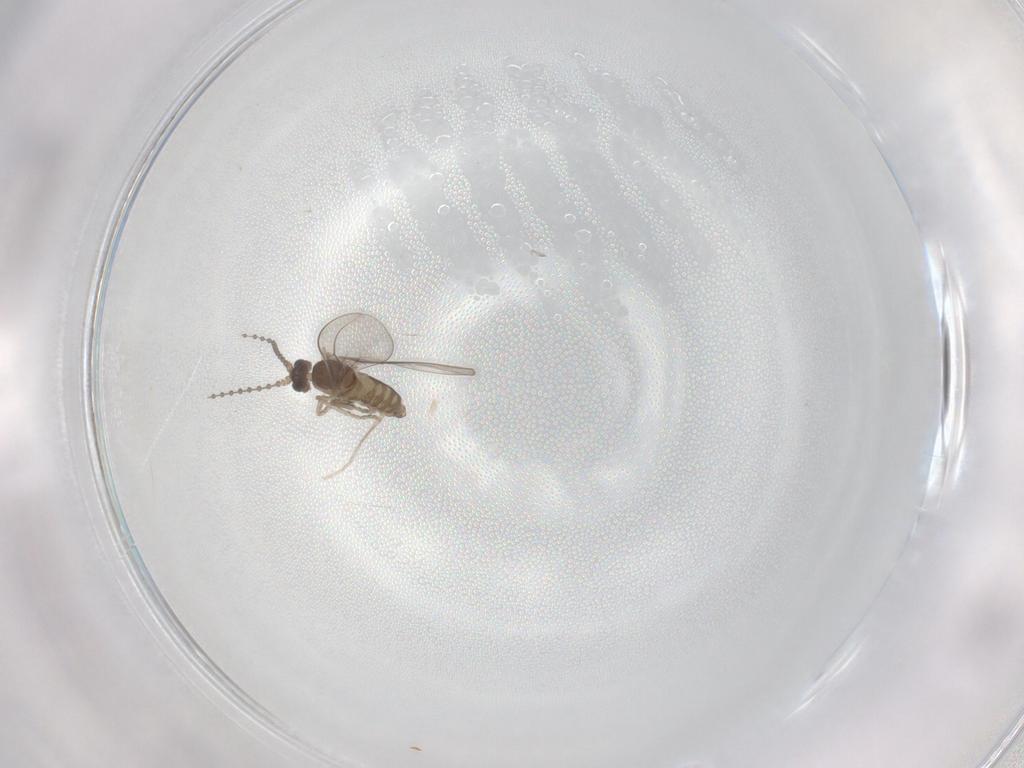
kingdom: Animalia
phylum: Arthropoda
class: Insecta
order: Diptera
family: Cecidomyiidae
